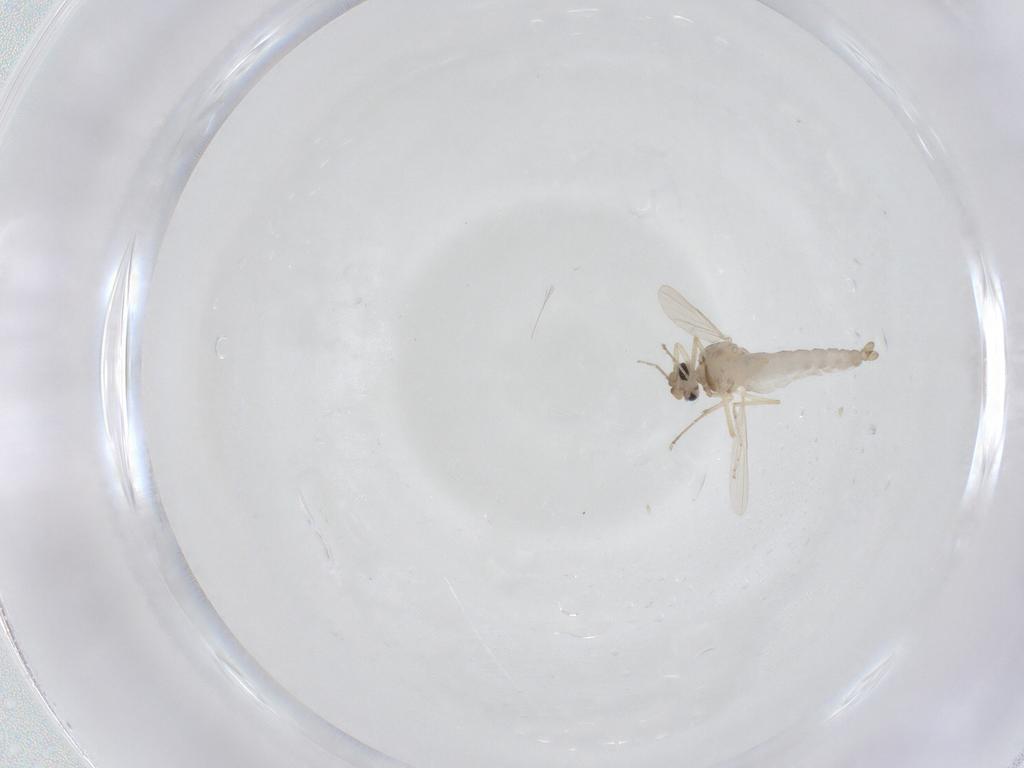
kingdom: Animalia
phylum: Arthropoda
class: Insecta
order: Diptera
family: Ceratopogonidae
